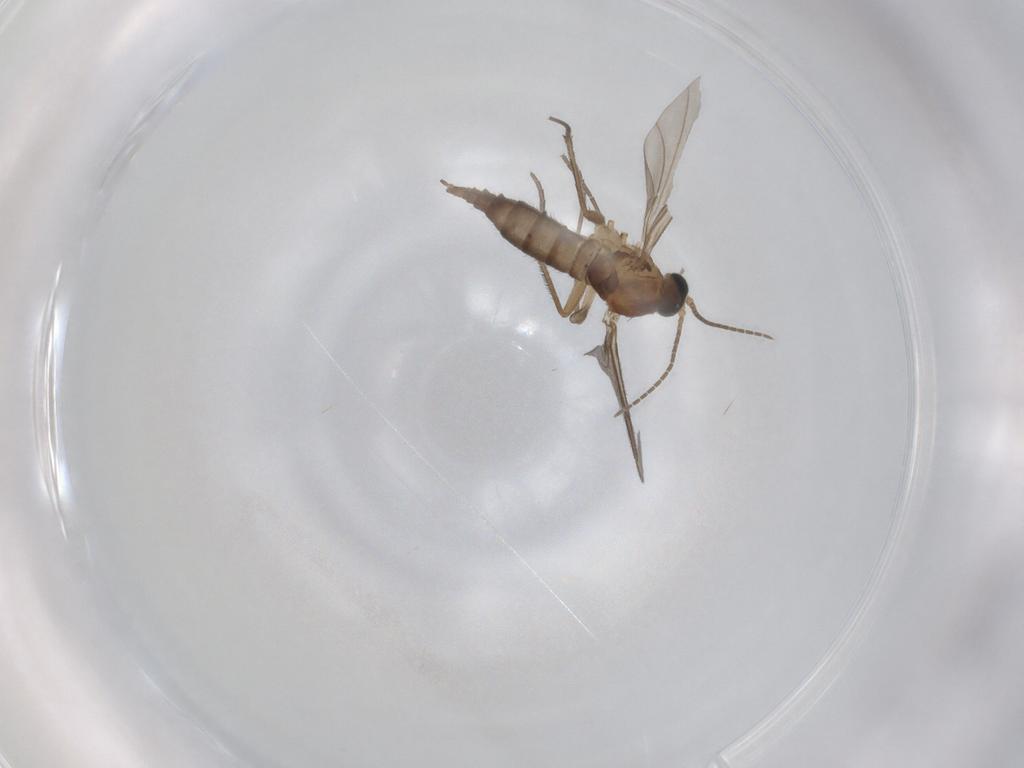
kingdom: Animalia
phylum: Arthropoda
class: Insecta
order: Diptera
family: Sciaridae
